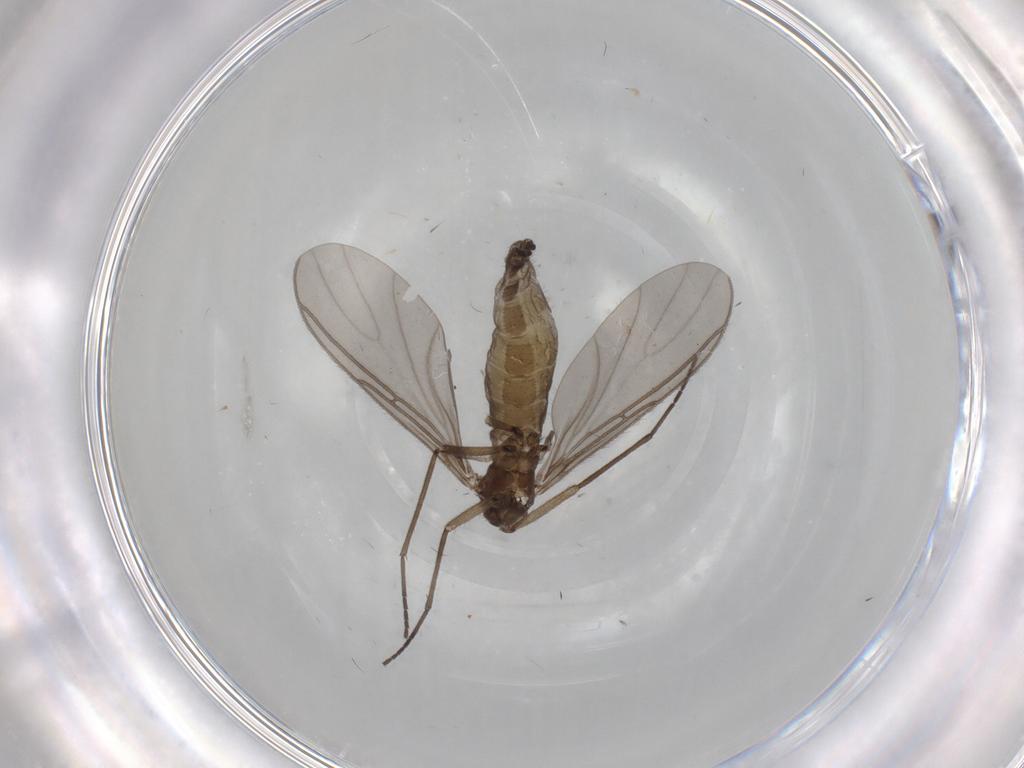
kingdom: Animalia
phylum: Arthropoda
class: Insecta
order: Diptera
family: Sciaridae
